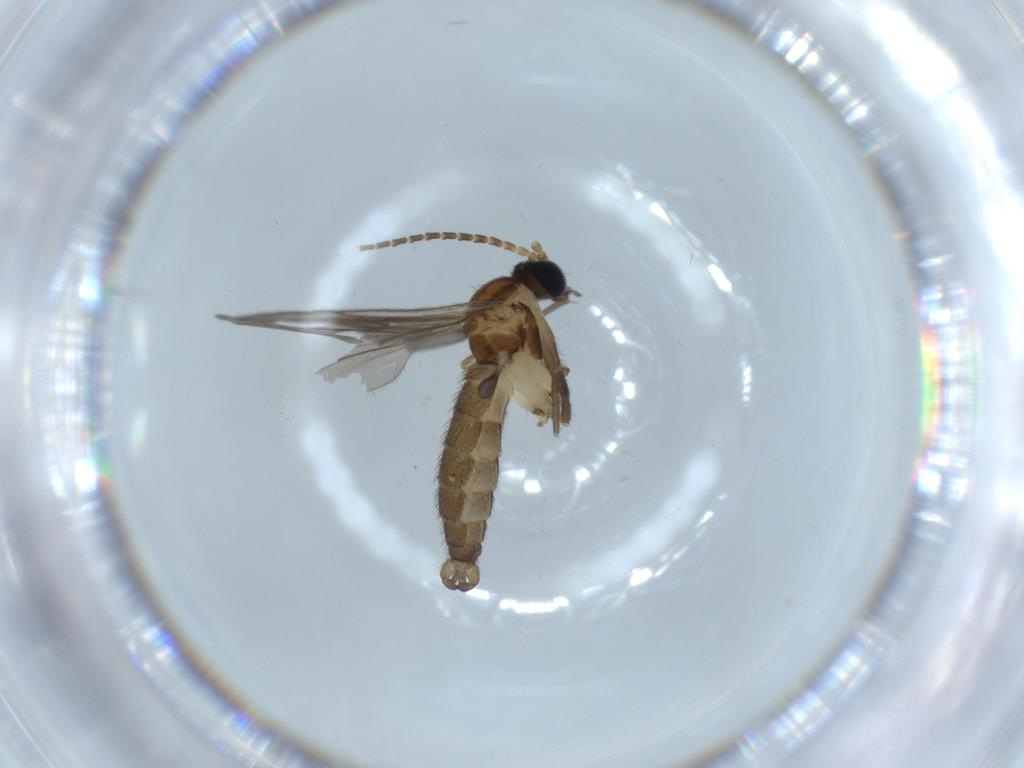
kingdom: Animalia
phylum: Arthropoda
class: Insecta
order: Diptera
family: Sciaridae
